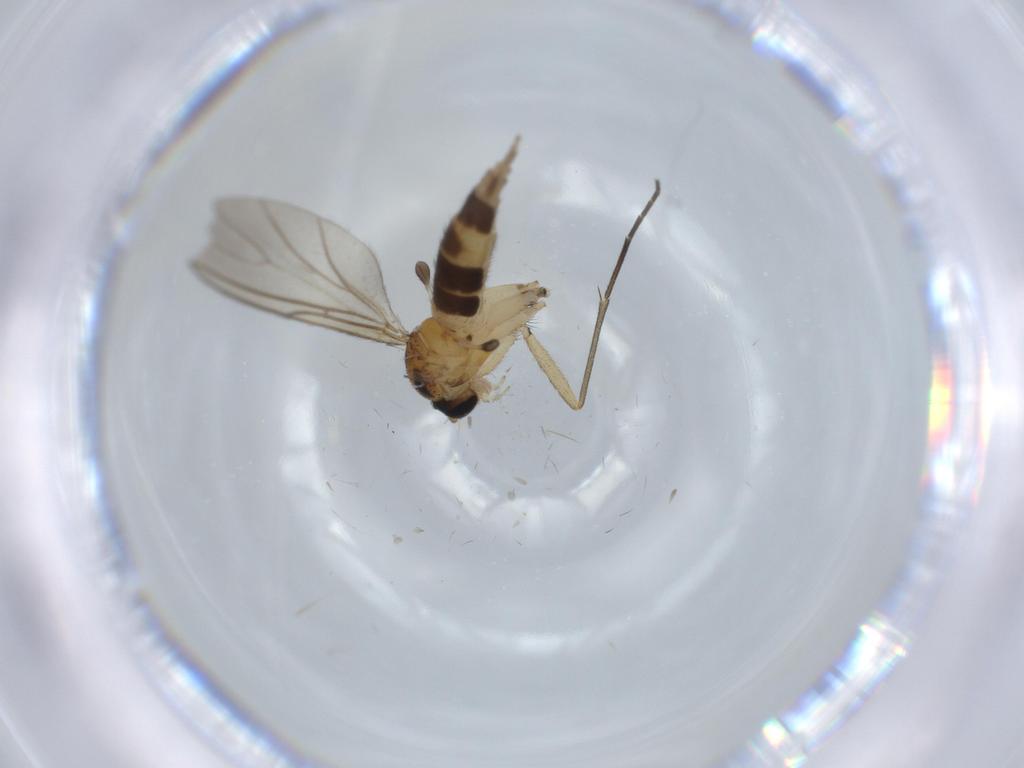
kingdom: Animalia
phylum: Arthropoda
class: Insecta
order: Diptera
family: Sciaridae
